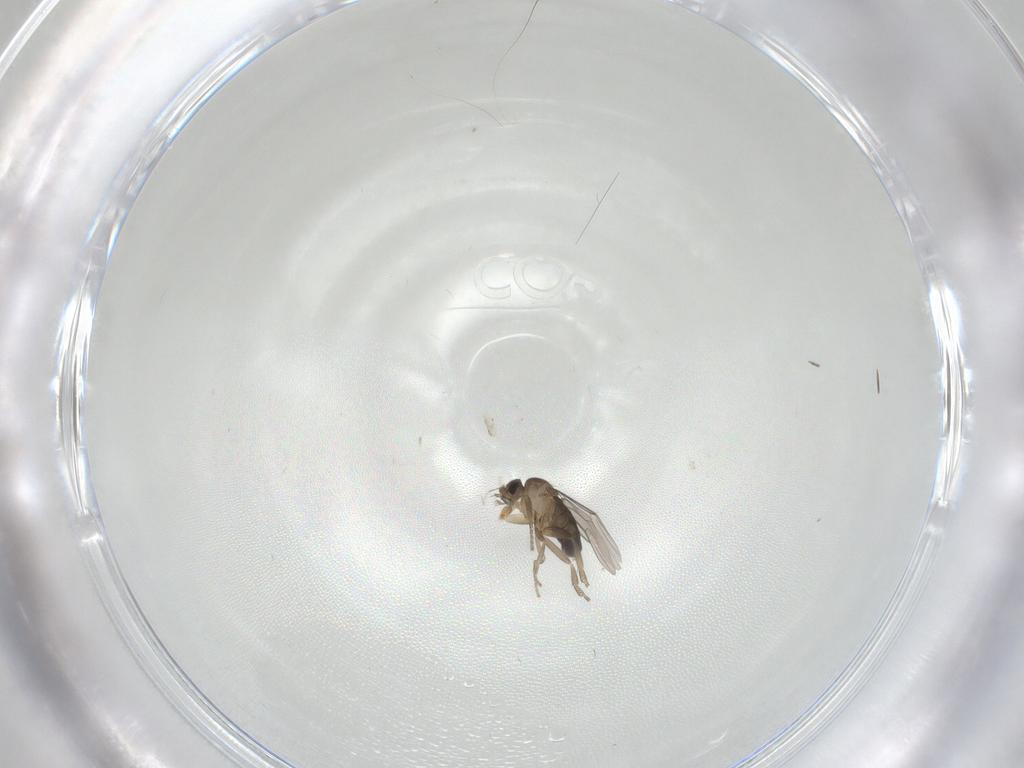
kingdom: Animalia
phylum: Arthropoda
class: Insecta
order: Diptera
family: Phoridae
